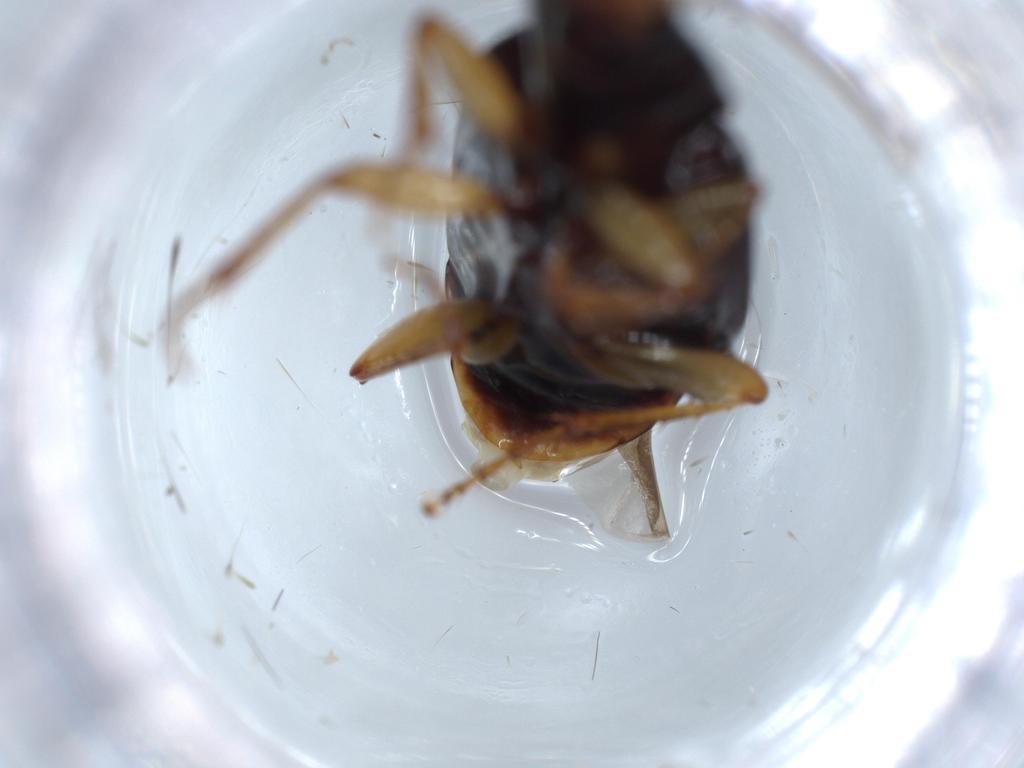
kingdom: Animalia
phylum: Arthropoda
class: Insecta
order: Coleoptera
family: Carabidae
